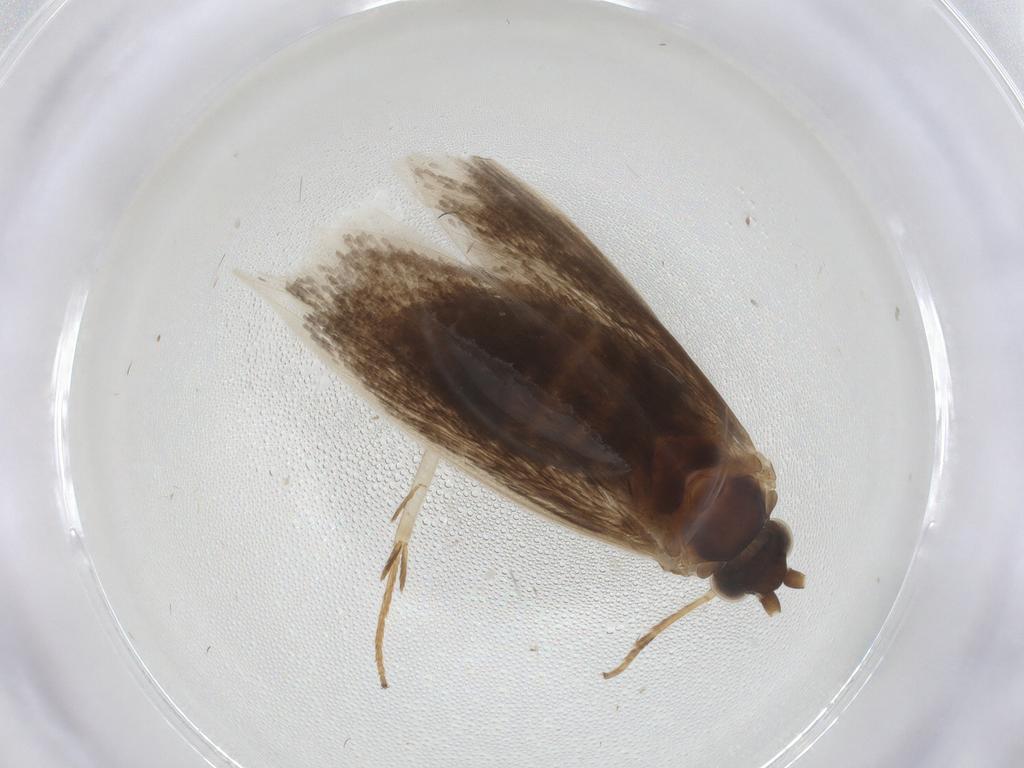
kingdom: Animalia
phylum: Arthropoda
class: Insecta
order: Lepidoptera
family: Adelidae
